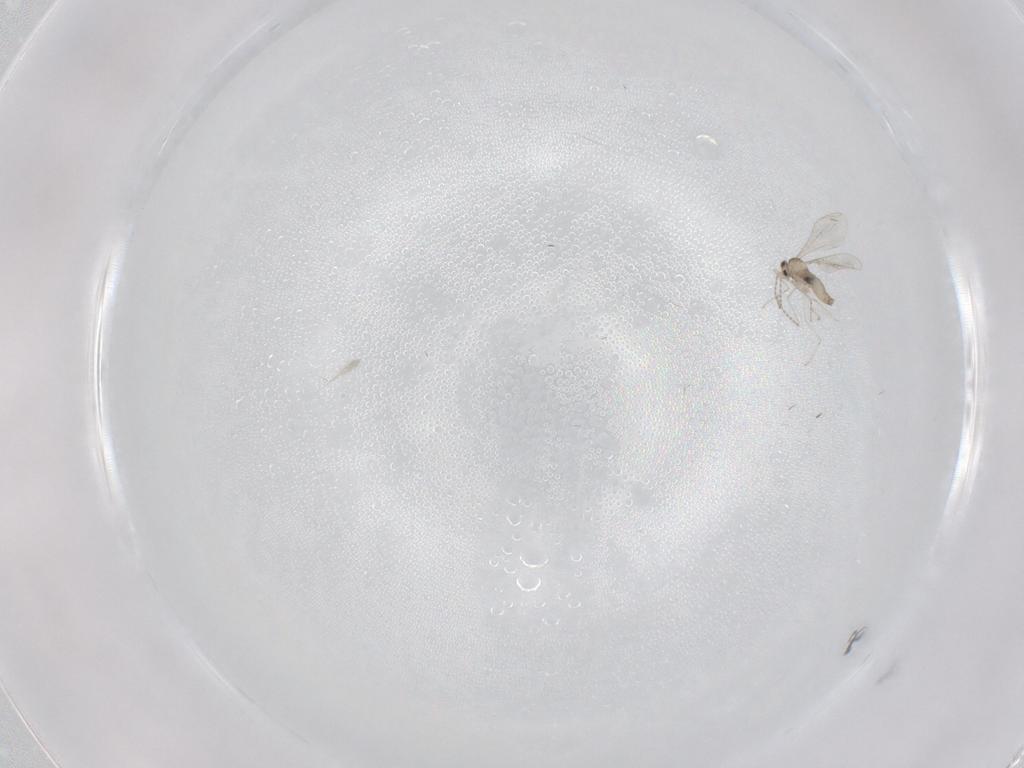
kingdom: Animalia
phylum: Arthropoda
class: Insecta
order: Diptera
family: Cecidomyiidae
